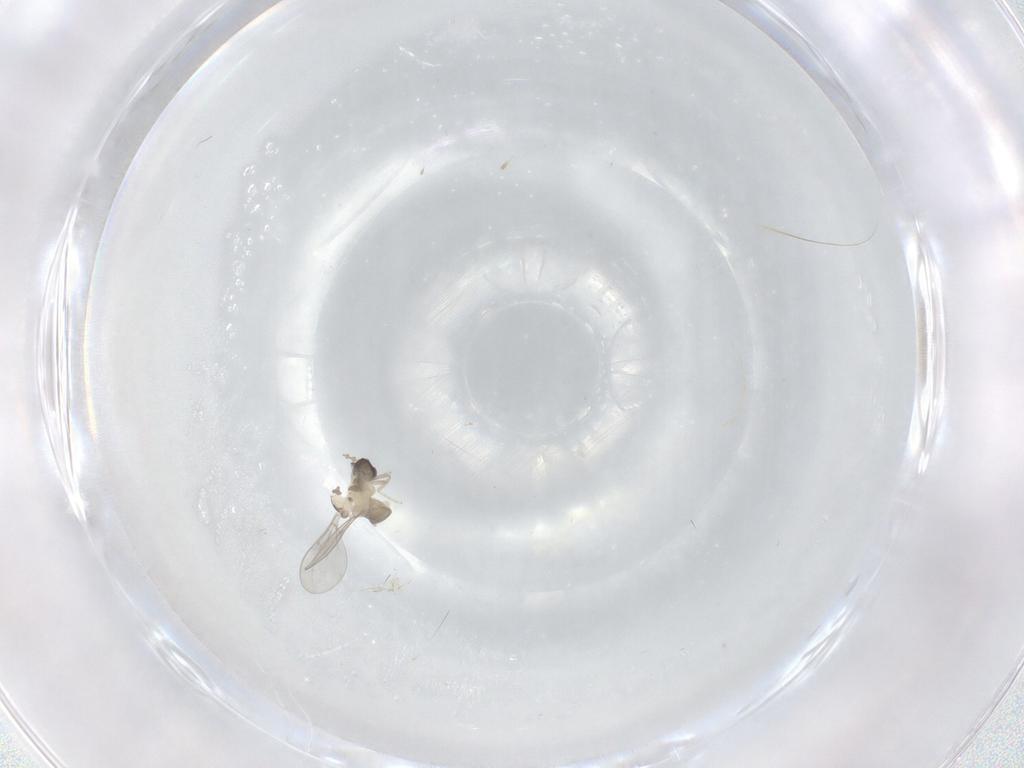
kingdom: Animalia
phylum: Arthropoda
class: Insecta
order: Diptera
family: Cecidomyiidae
